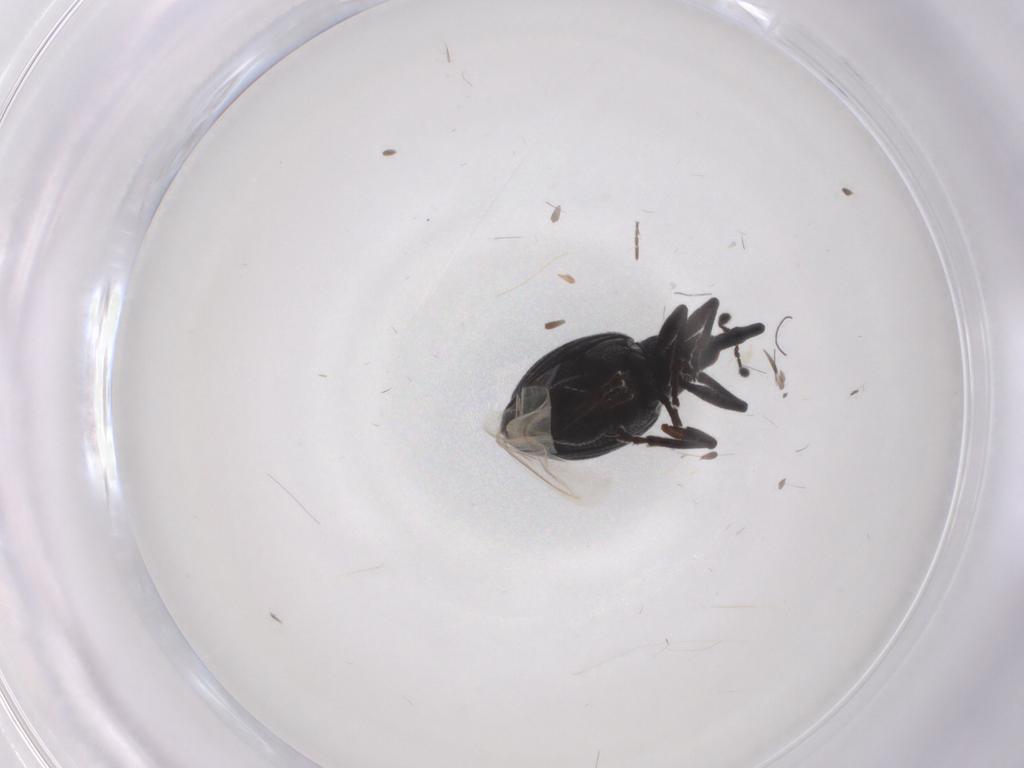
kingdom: Animalia
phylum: Arthropoda
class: Insecta
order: Coleoptera
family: Brentidae
